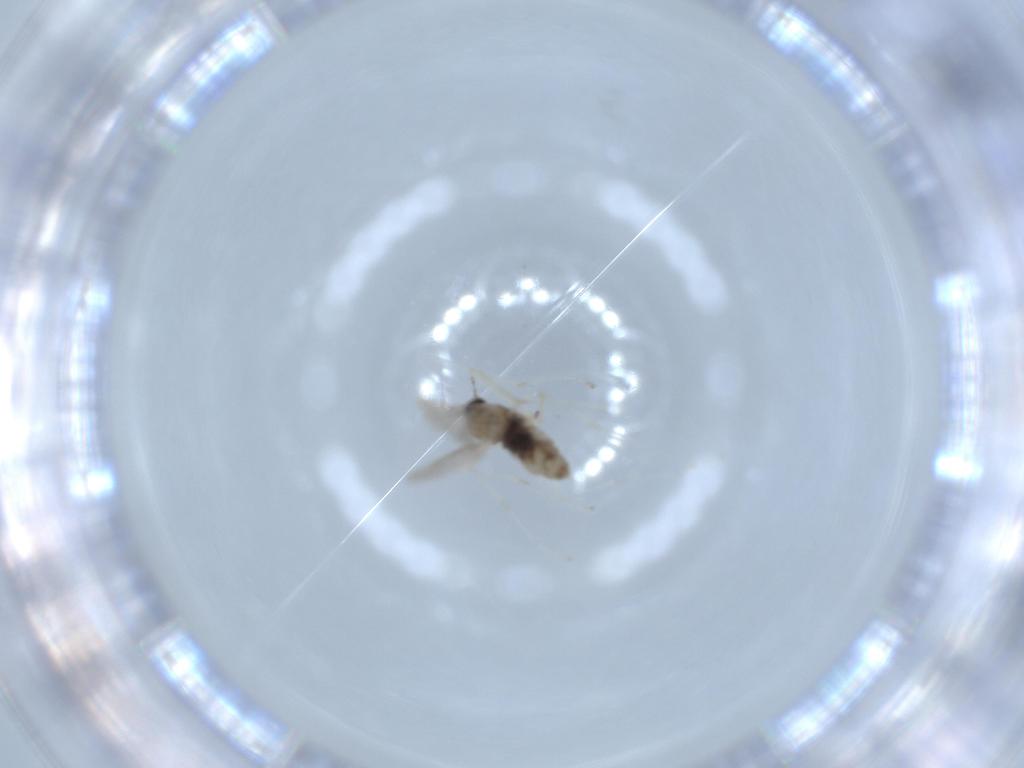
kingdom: Animalia
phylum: Arthropoda
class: Insecta
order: Diptera
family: Cecidomyiidae
